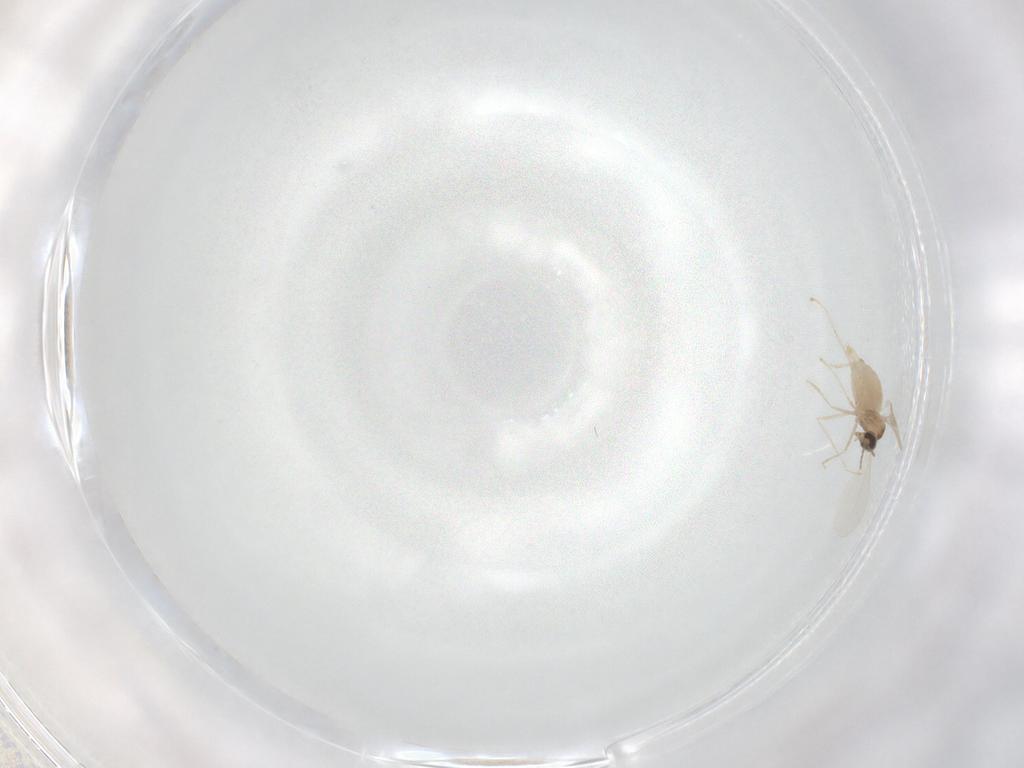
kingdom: Animalia
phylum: Arthropoda
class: Insecta
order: Diptera
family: Cecidomyiidae
